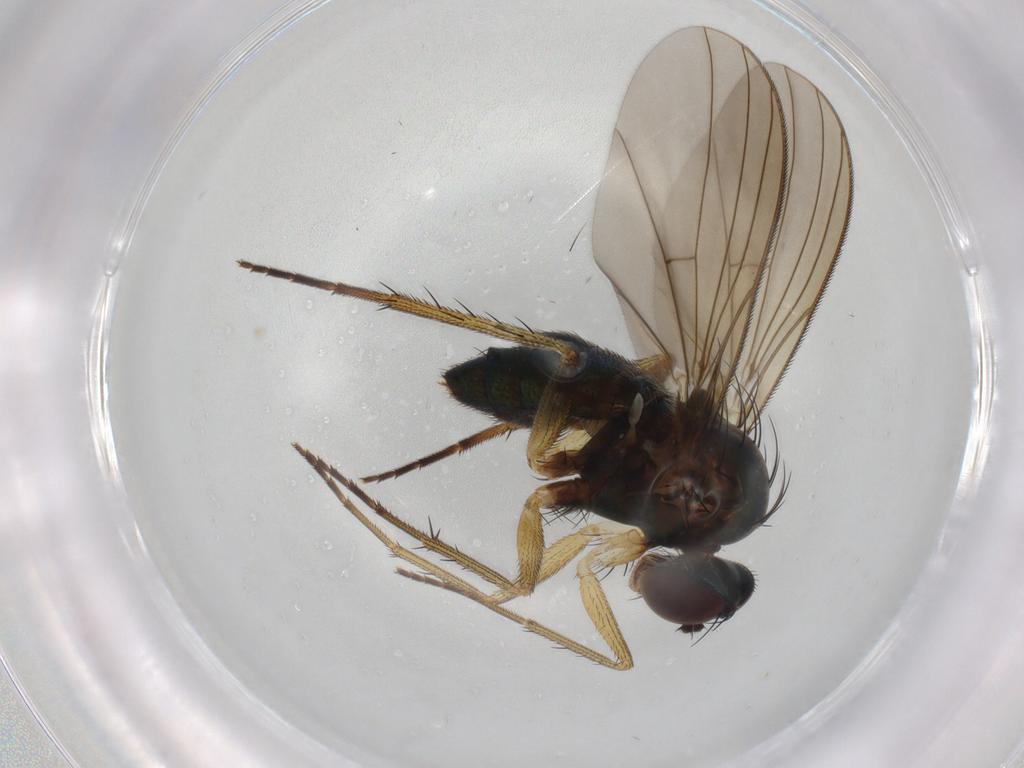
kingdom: Animalia
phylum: Arthropoda
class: Insecta
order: Diptera
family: Dolichopodidae
